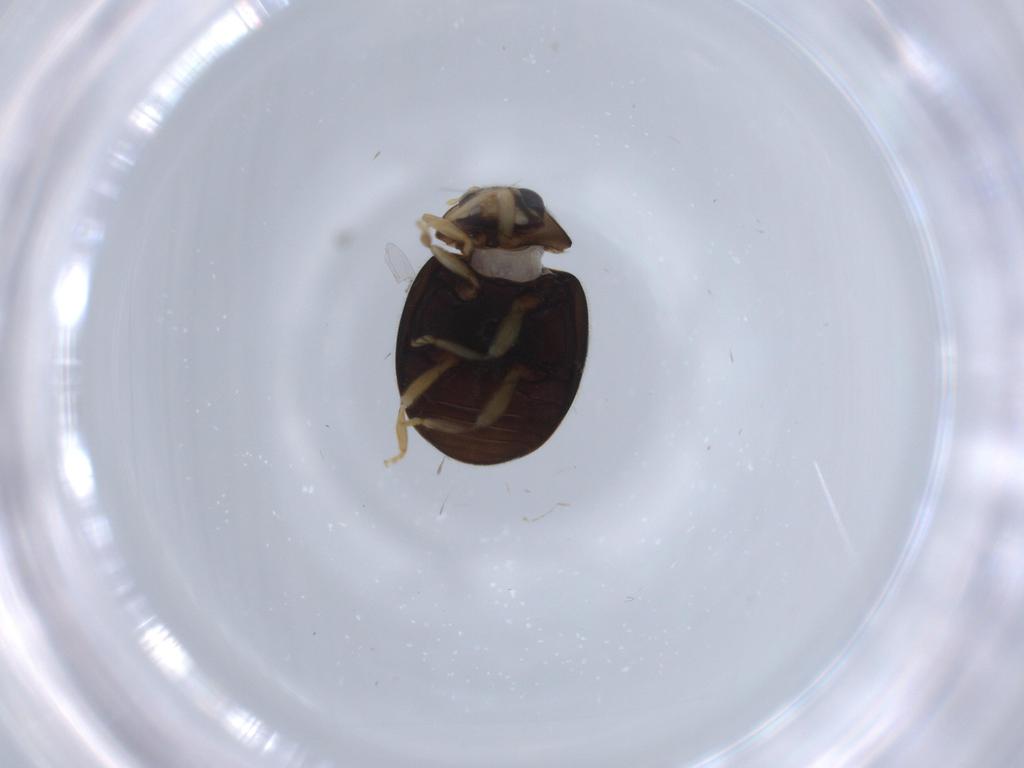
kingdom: Animalia
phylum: Arthropoda
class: Insecta
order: Coleoptera
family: Coccinellidae
